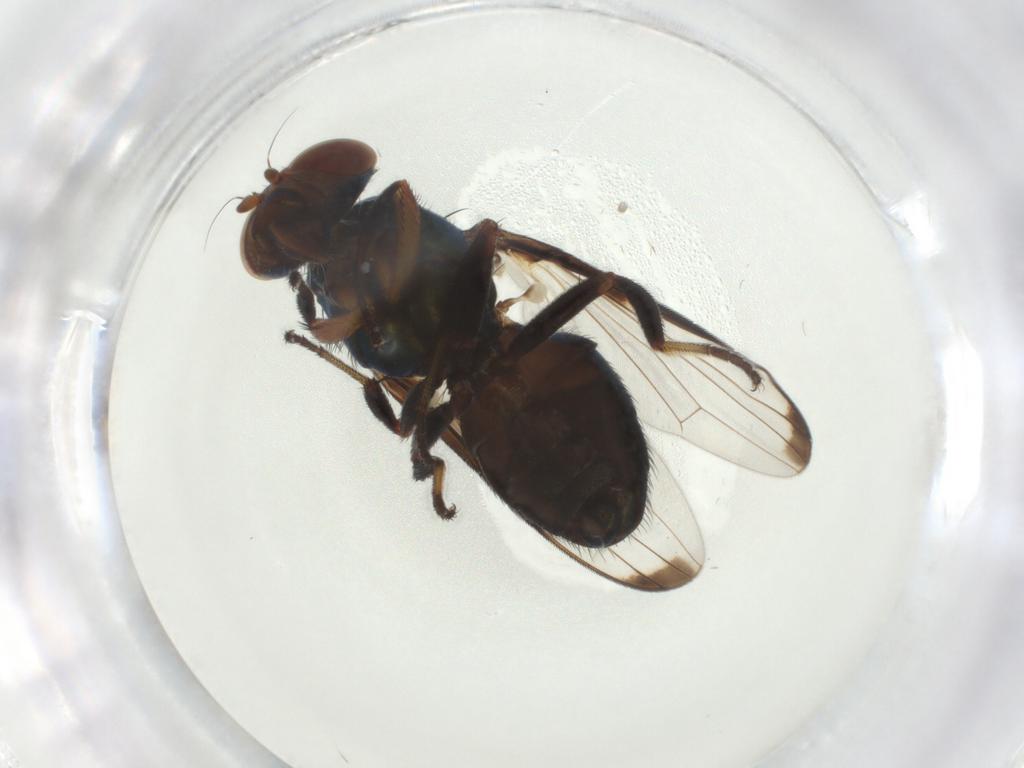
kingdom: Animalia
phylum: Arthropoda
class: Insecta
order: Diptera
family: Ulidiidae
